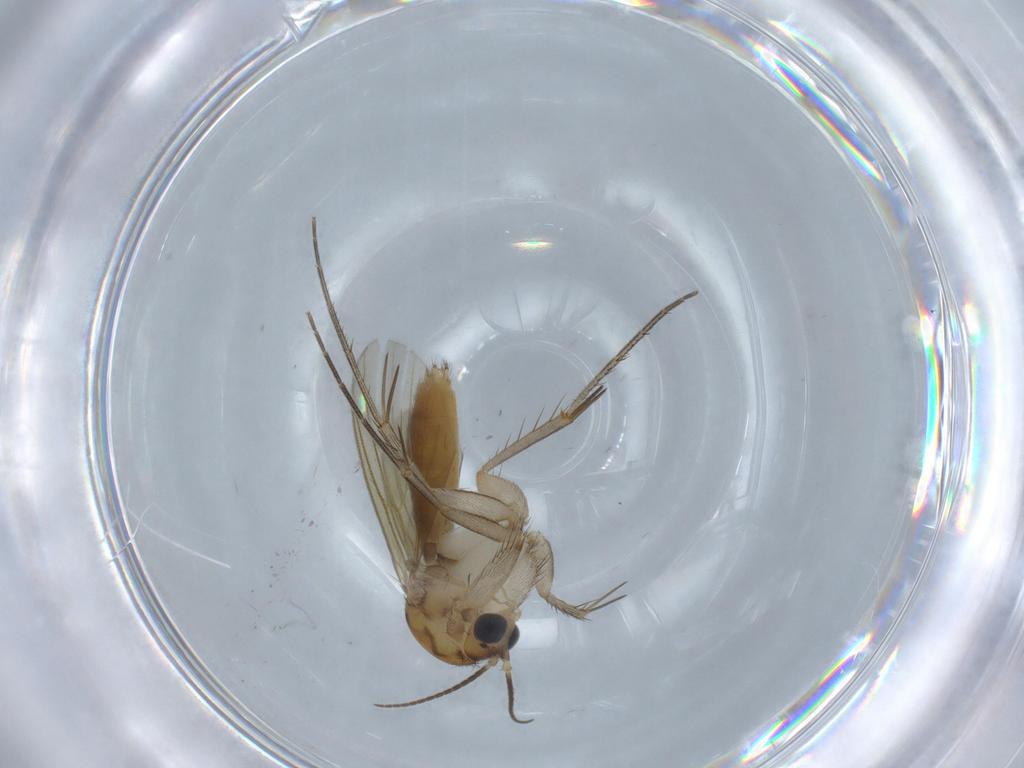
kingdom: Animalia
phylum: Arthropoda
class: Insecta
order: Diptera
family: Mycetophilidae
